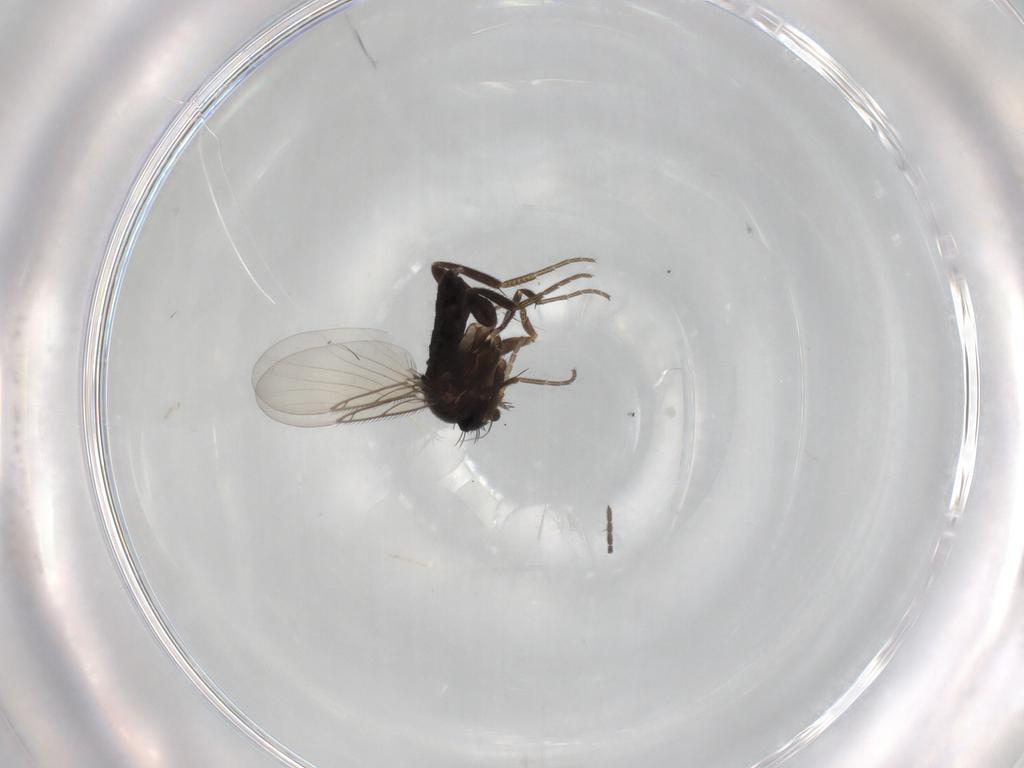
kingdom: Animalia
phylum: Arthropoda
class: Insecta
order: Diptera
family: Phoridae
